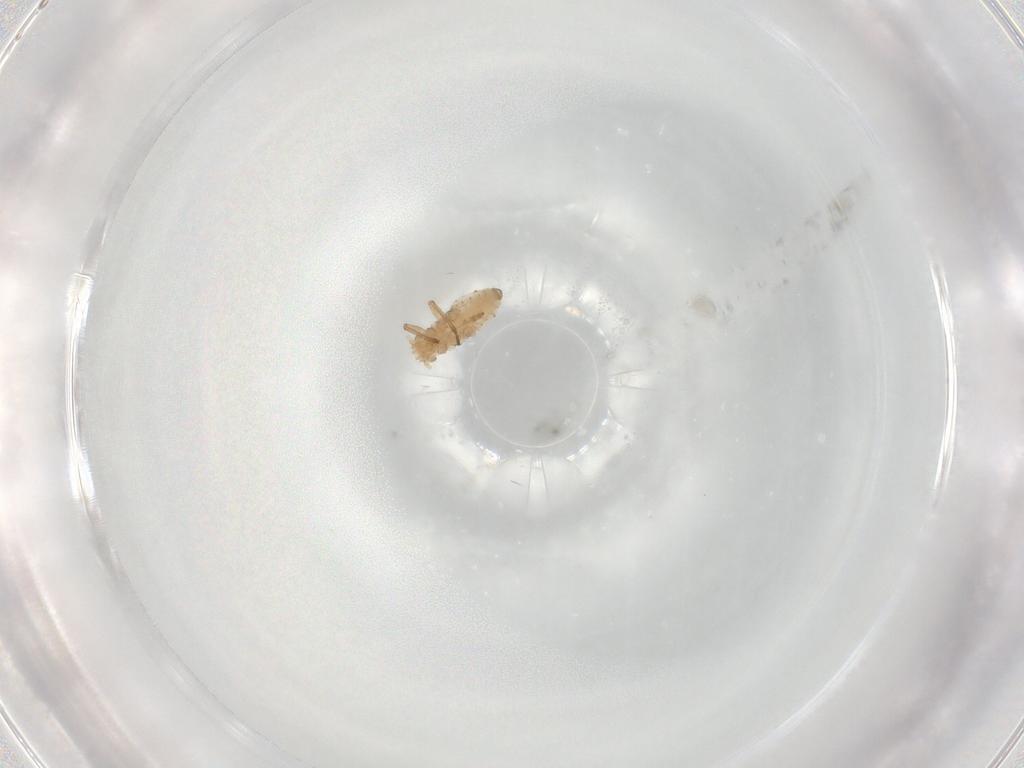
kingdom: Animalia
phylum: Arthropoda
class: Insecta
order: Hemiptera
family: Aphididae
